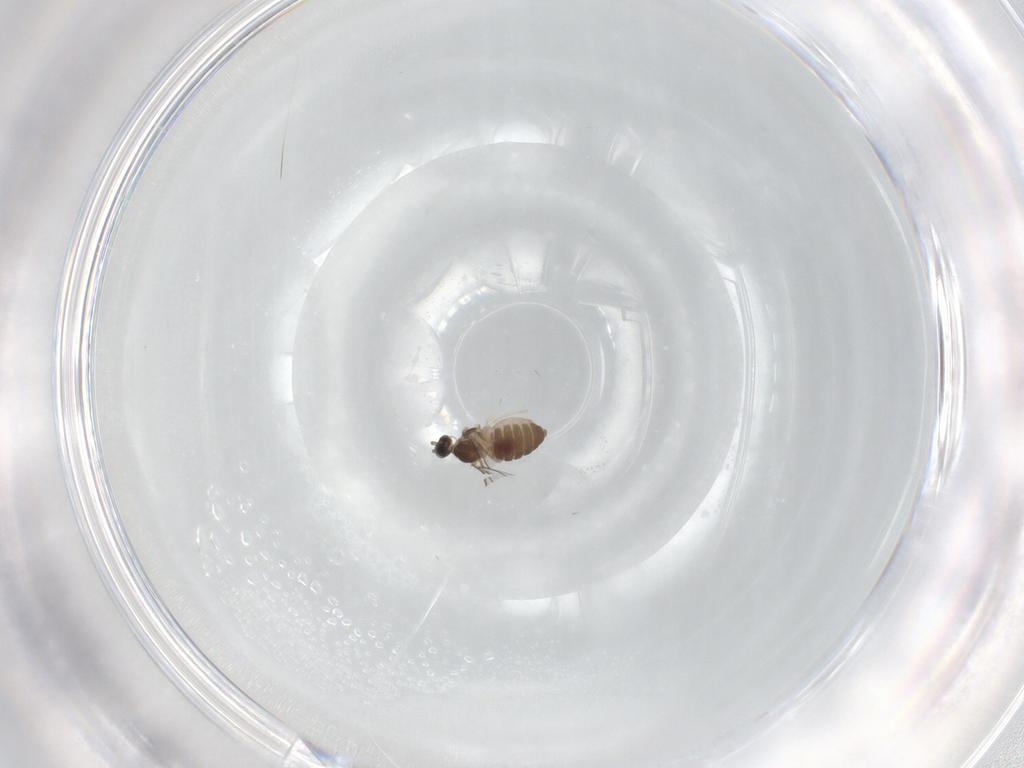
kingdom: Animalia
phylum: Arthropoda
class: Insecta
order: Diptera
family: Cecidomyiidae
